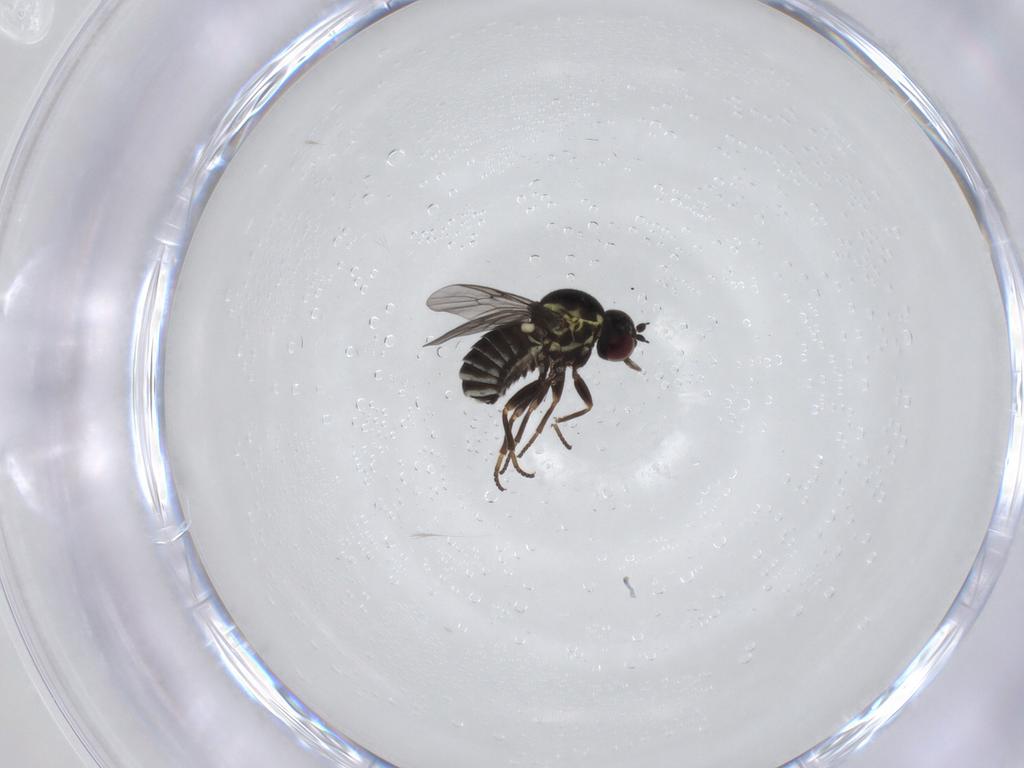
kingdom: Animalia
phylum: Arthropoda
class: Insecta
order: Diptera
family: Bombyliidae
